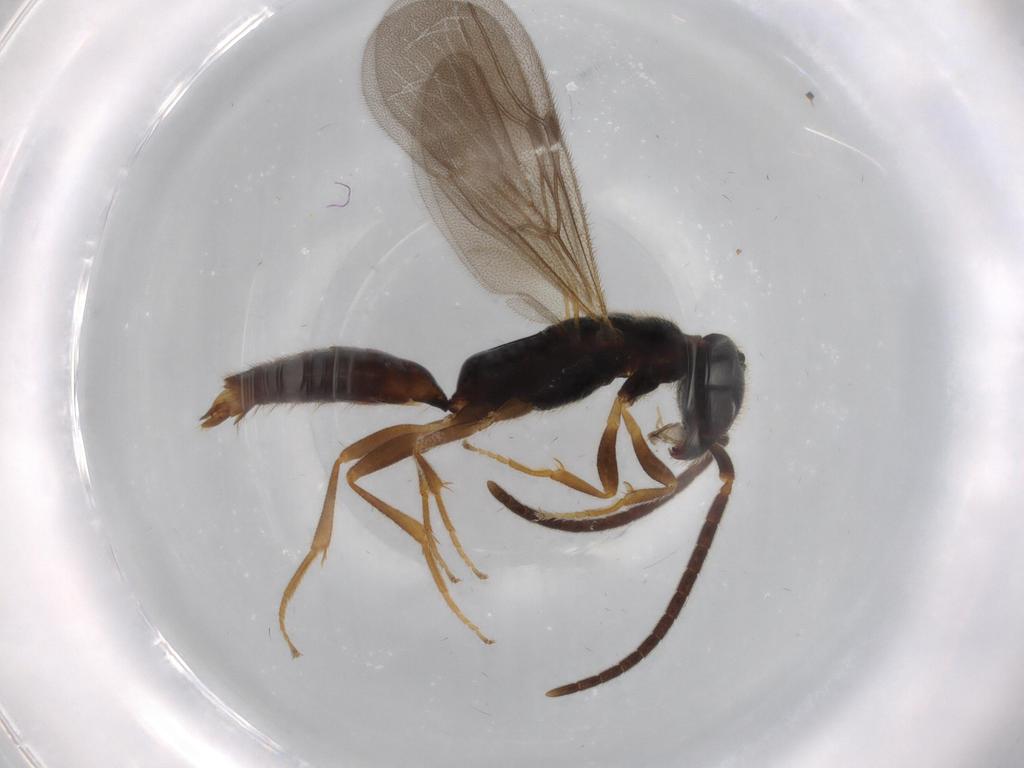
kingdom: Animalia
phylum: Arthropoda
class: Insecta
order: Hymenoptera
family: Bethylidae
